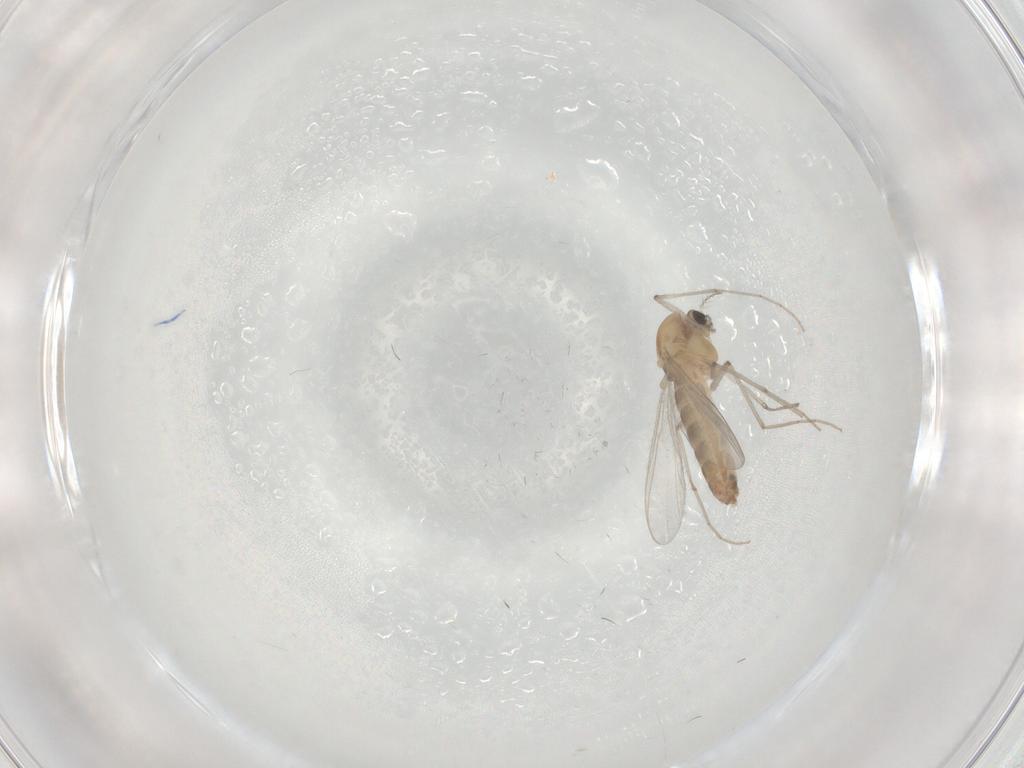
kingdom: Animalia
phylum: Arthropoda
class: Insecta
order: Diptera
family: Chironomidae
